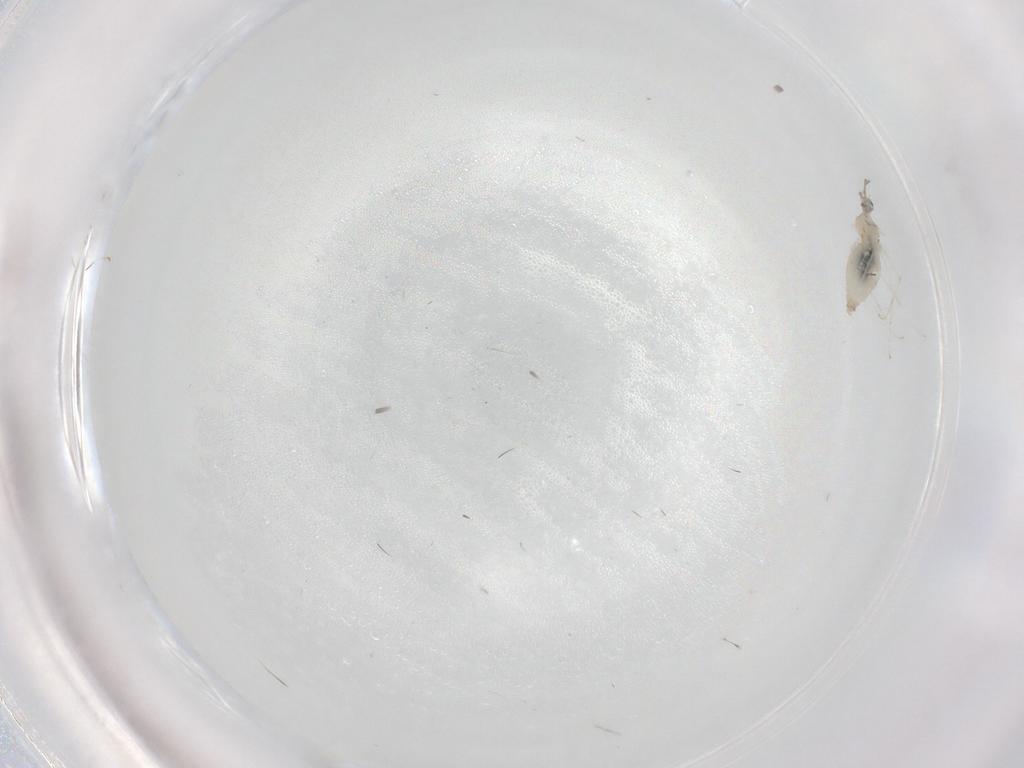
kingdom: Animalia
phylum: Arthropoda
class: Insecta
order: Diptera
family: Cecidomyiidae
